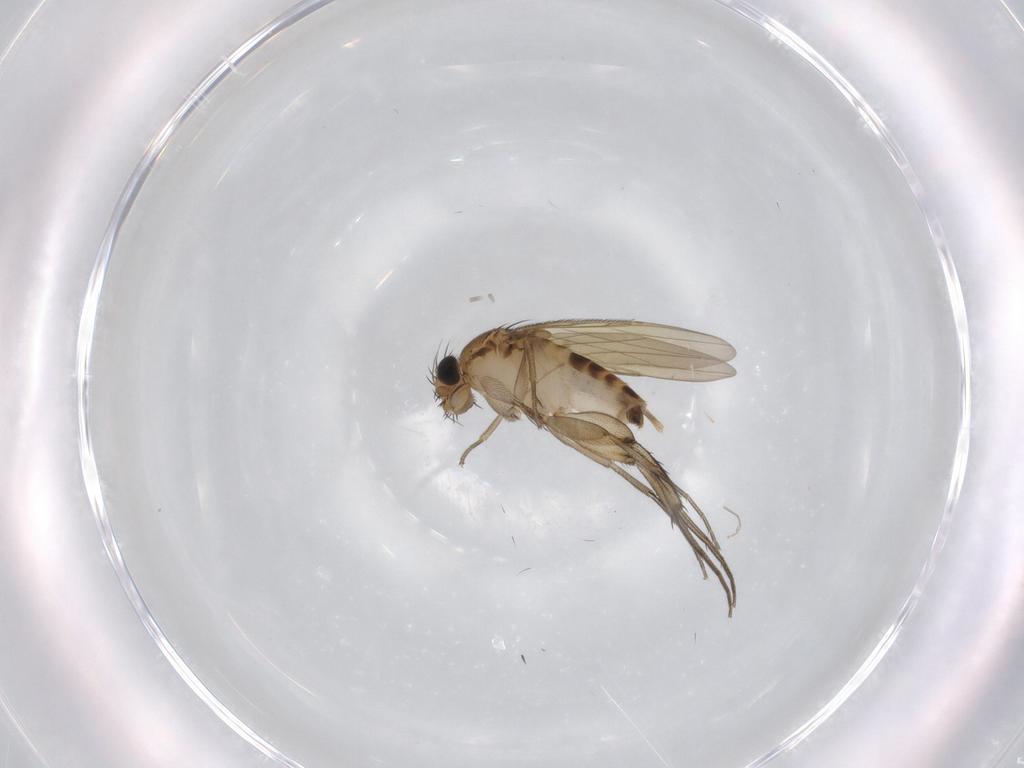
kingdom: Animalia
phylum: Arthropoda
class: Insecta
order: Diptera
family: Phoridae
